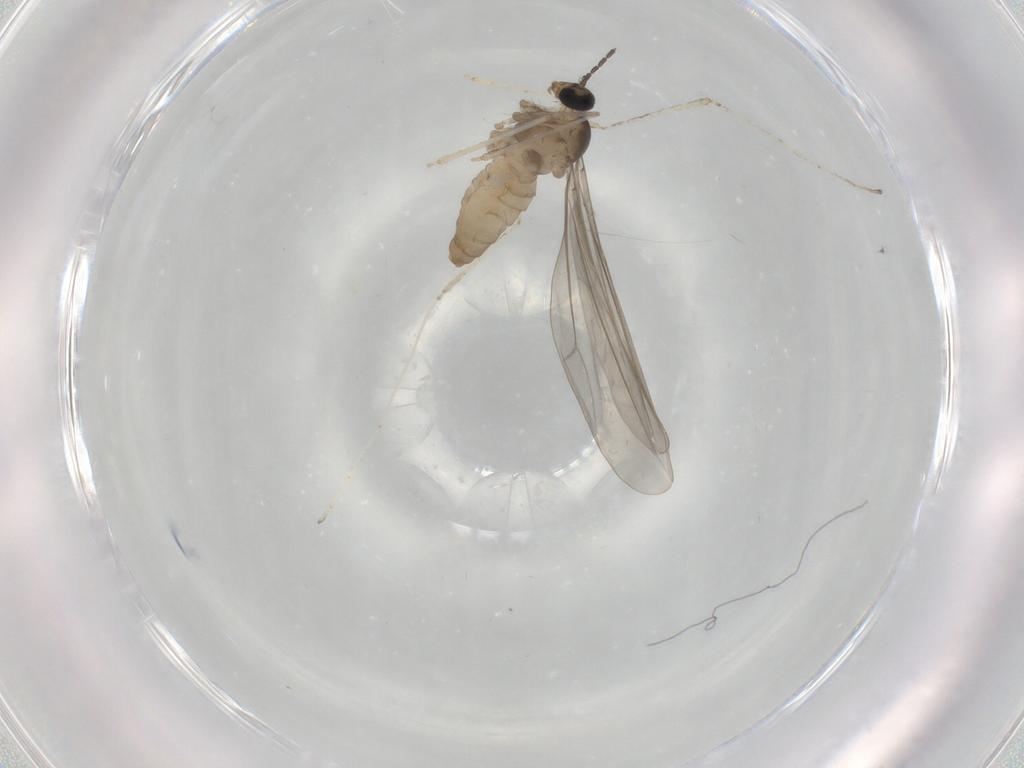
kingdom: Animalia
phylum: Arthropoda
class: Insecta
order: Diptera
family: Cecidomyiidae
